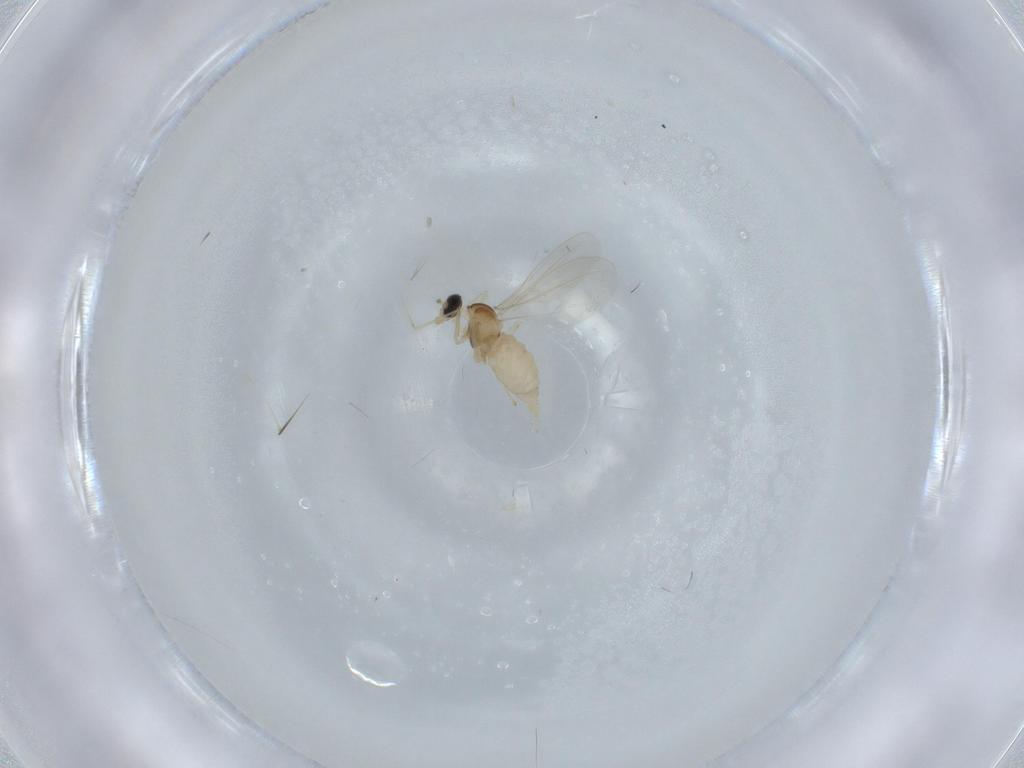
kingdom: Animalia
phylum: Arthropoda
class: Insecta
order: Diptera
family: Cecidomyiidae
